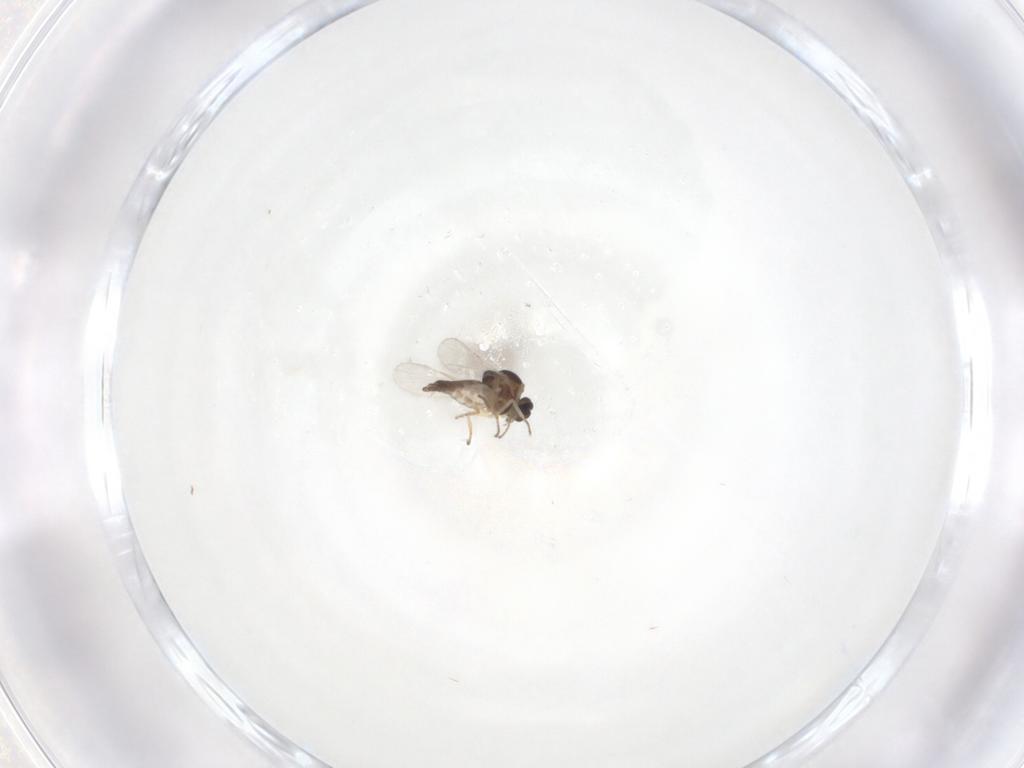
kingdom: Animalia
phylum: Arthropoda
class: Insecta
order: Diptera
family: Ceratopogonidae
